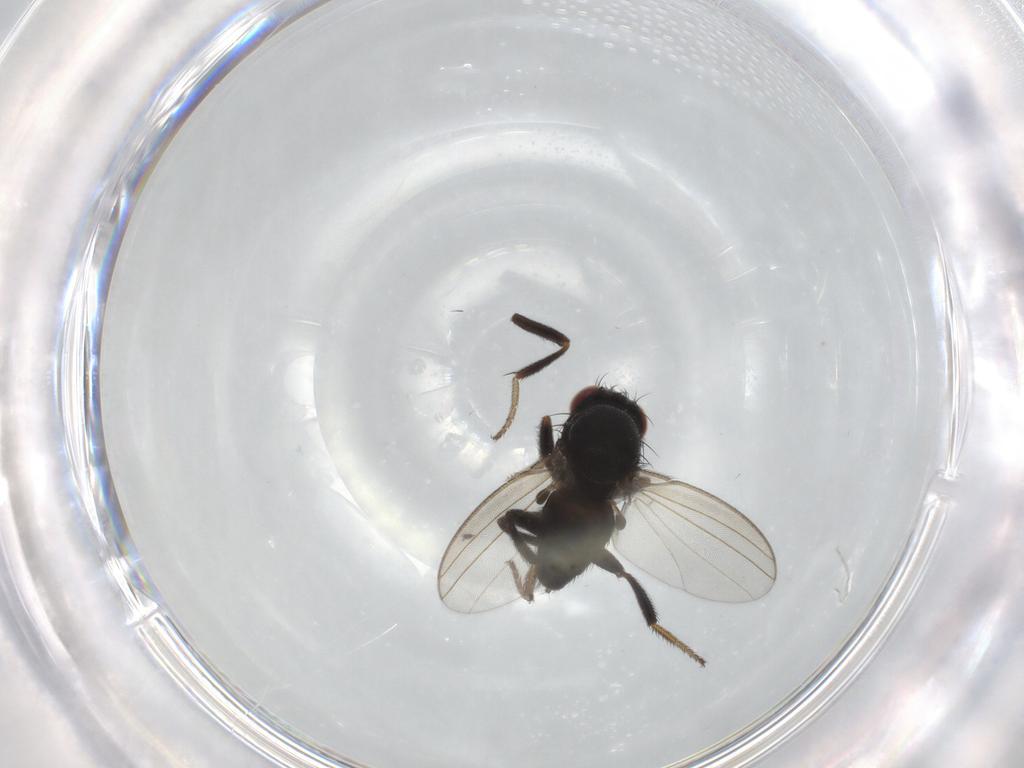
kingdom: Animalia
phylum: Arthropoda
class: Insecta
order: Diptera
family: Milichiidae
